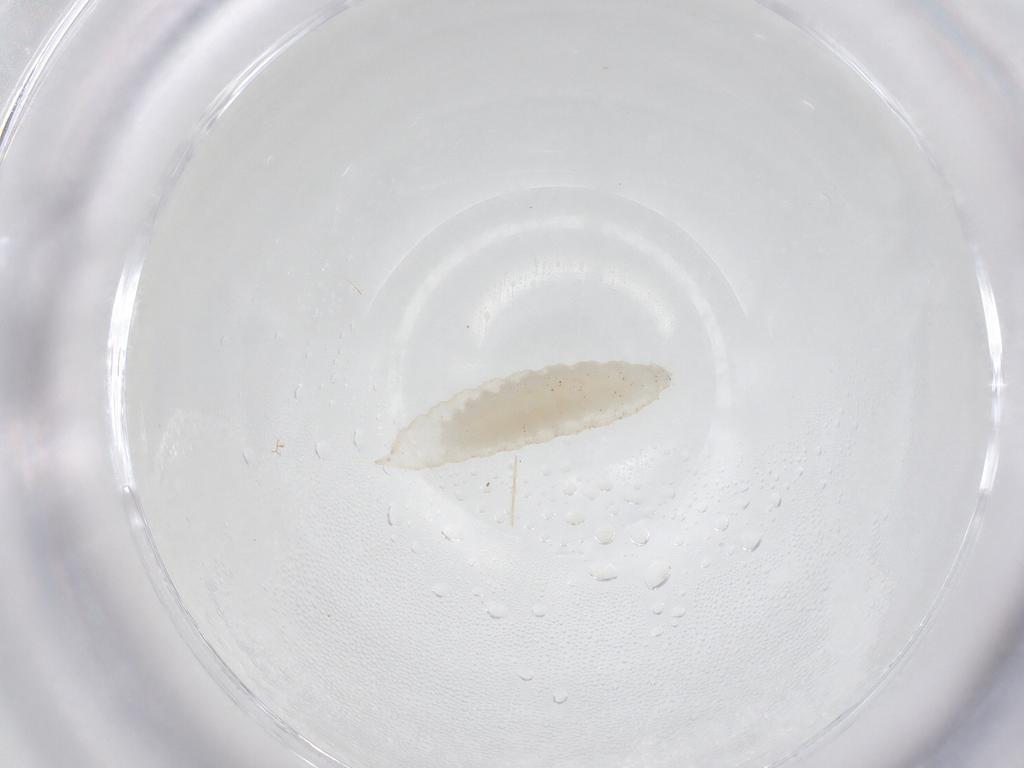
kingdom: Animalia
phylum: Arthropoda
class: Insecta
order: Diptera
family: Cecidomyiidae
